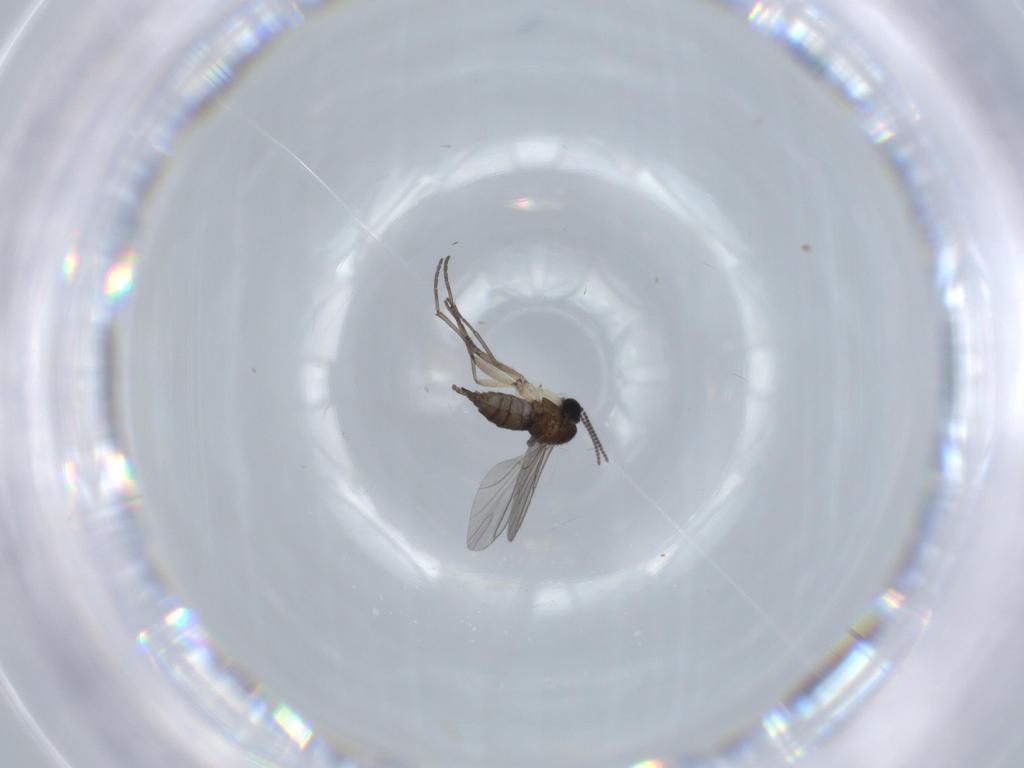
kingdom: Animalia
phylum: Arthropoda
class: Insecta
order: Diptera
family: Sciaridae
